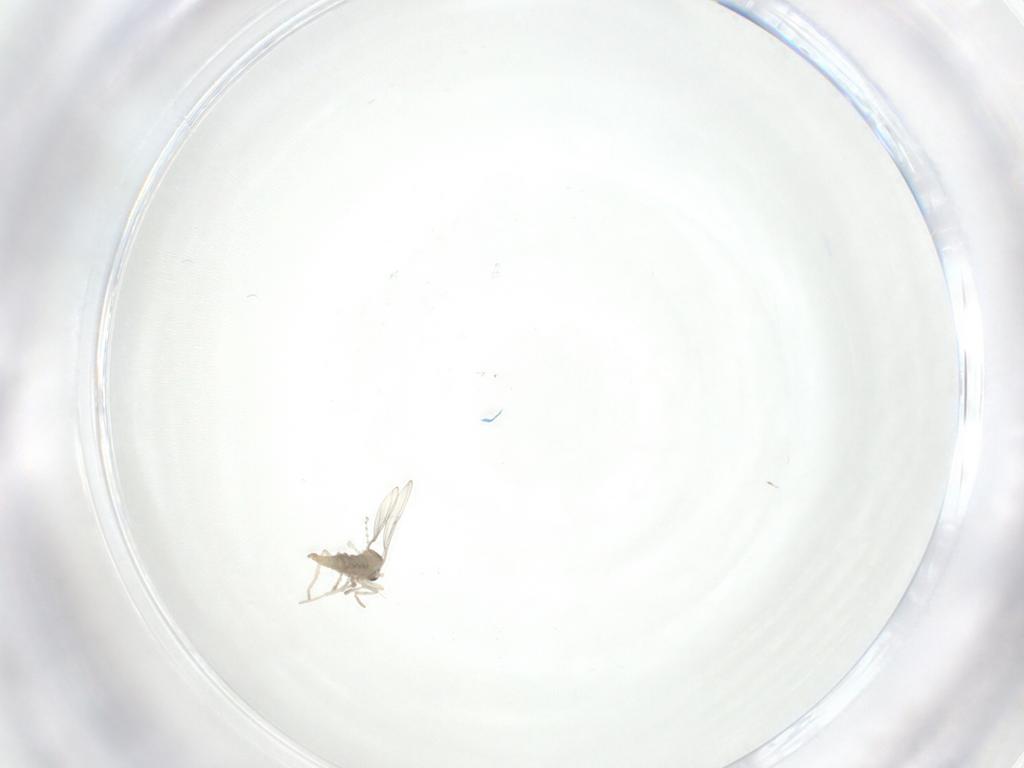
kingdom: Animalia
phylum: Arthropoda
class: Insecta
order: Diptera
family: Cecidomyiidae
